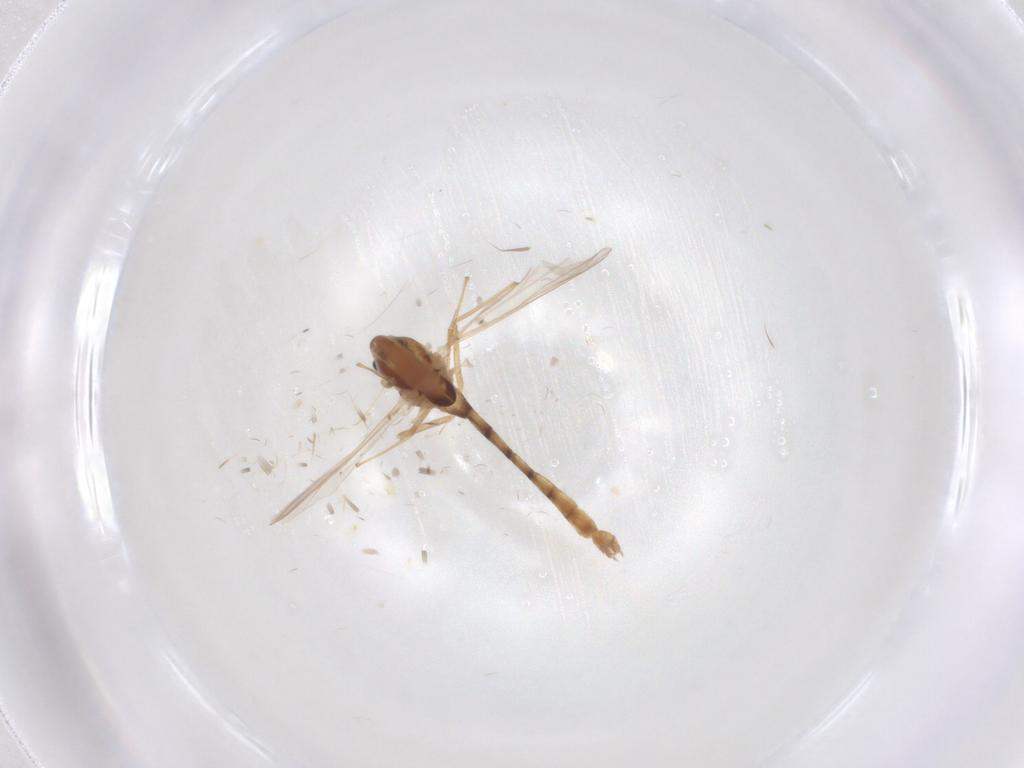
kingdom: Animalia
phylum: Arthropoda
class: Insecta
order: Diptera
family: Chironomidae
